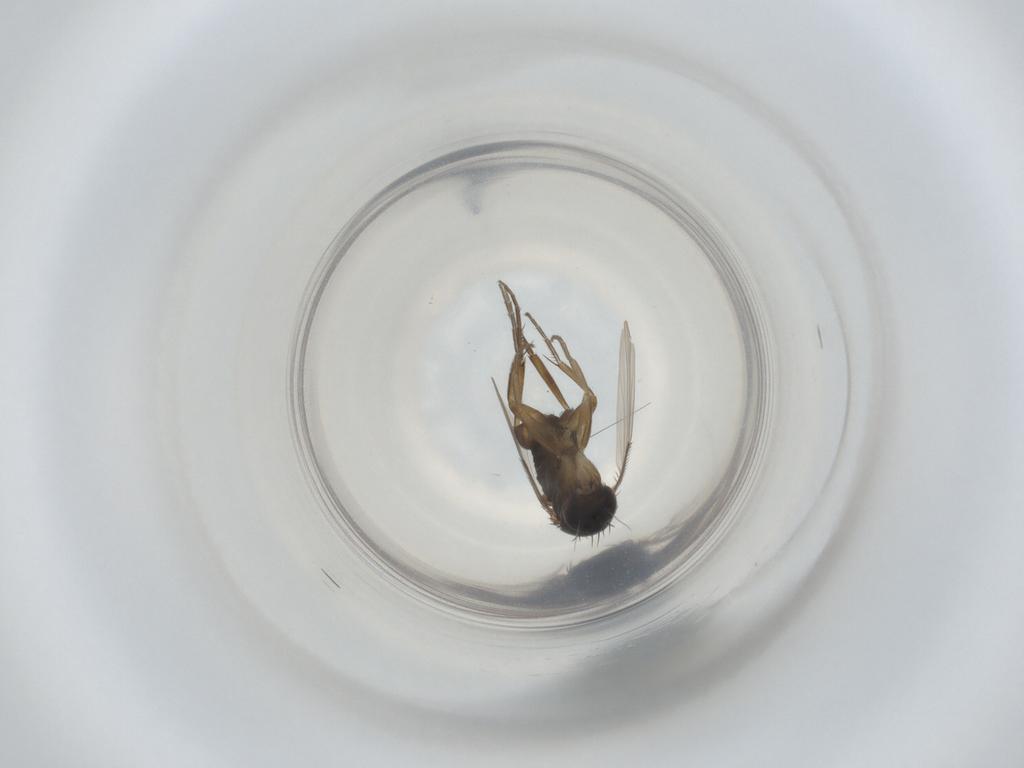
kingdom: Animalia
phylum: Arthropoda
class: Insecta
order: Diptera
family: Phoridae
